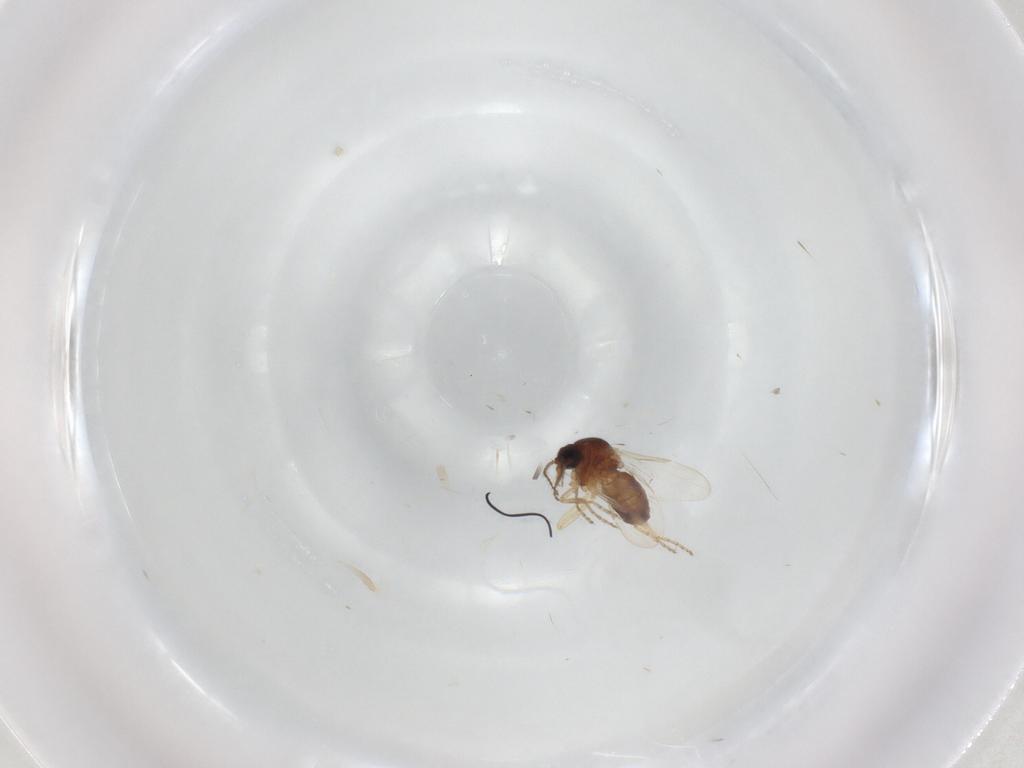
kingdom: Animalia
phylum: Arthropoda
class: Insecta
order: Diptera
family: Ceratopogonidae
